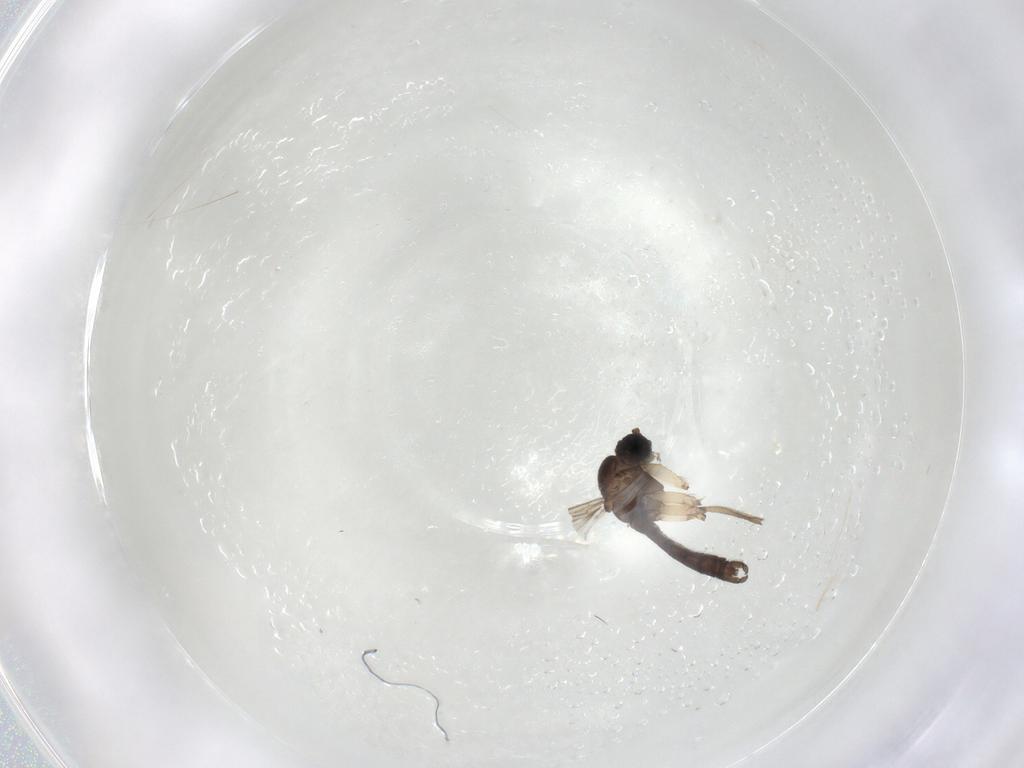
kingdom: Animalia
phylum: Arthropoda
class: Insecta
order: Diptera
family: Sciaridae
